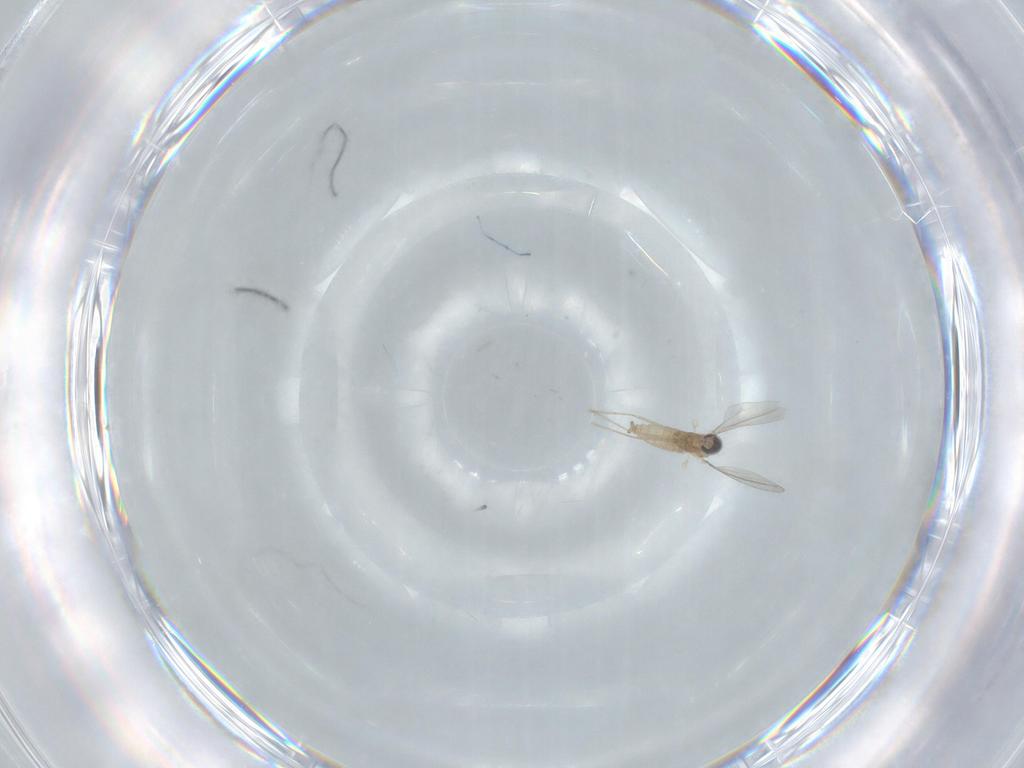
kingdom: Animalia
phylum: Arthropoda
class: Insecta
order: Diptera
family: Cecidomyiidae
